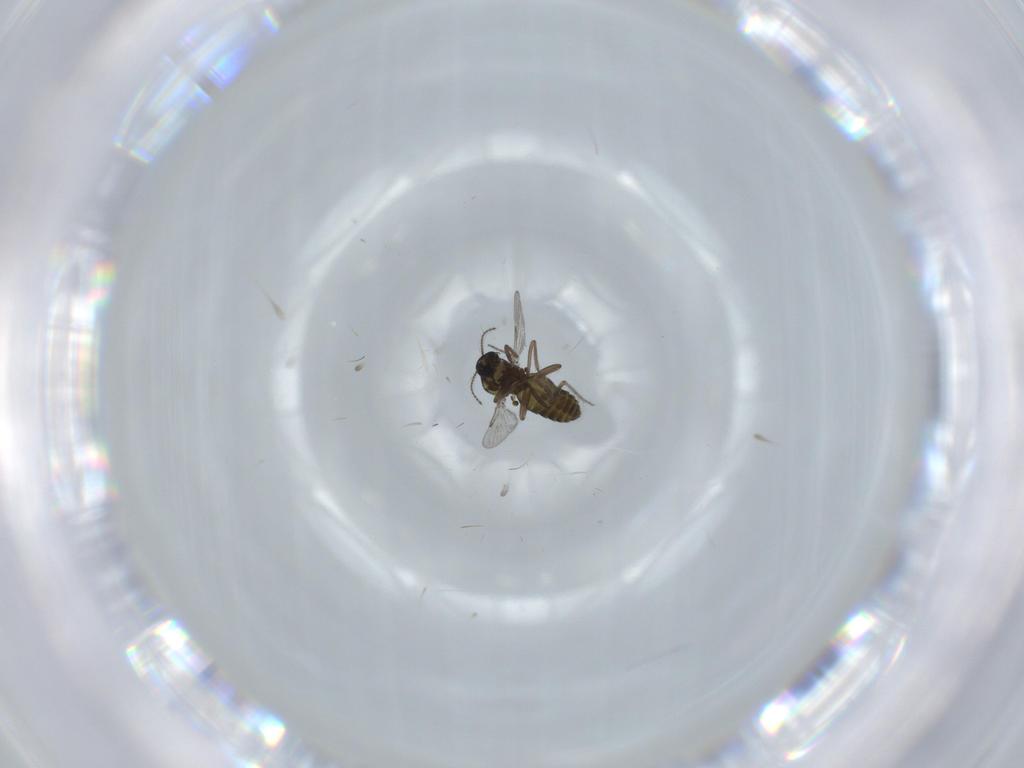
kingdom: Animalia
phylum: Arthropoda
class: Insecta
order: Diptera
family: Ceratopogonidae
